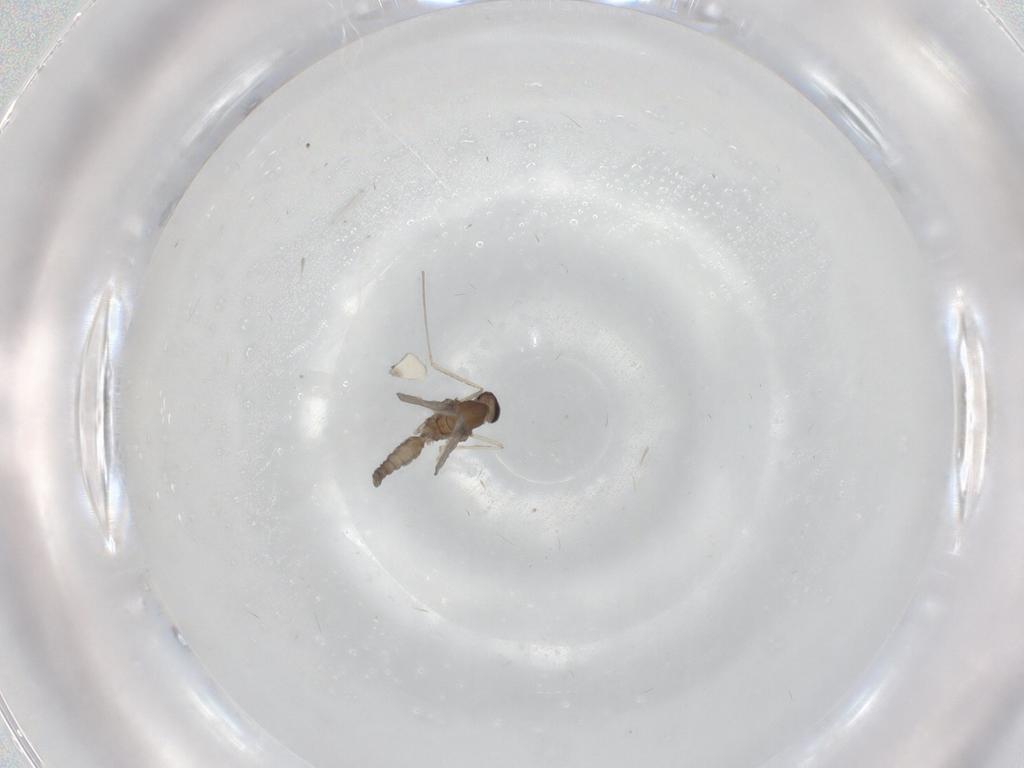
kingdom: Animalia
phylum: Arthropoda
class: Insecta
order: Diptera
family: Cecidomyiidae
